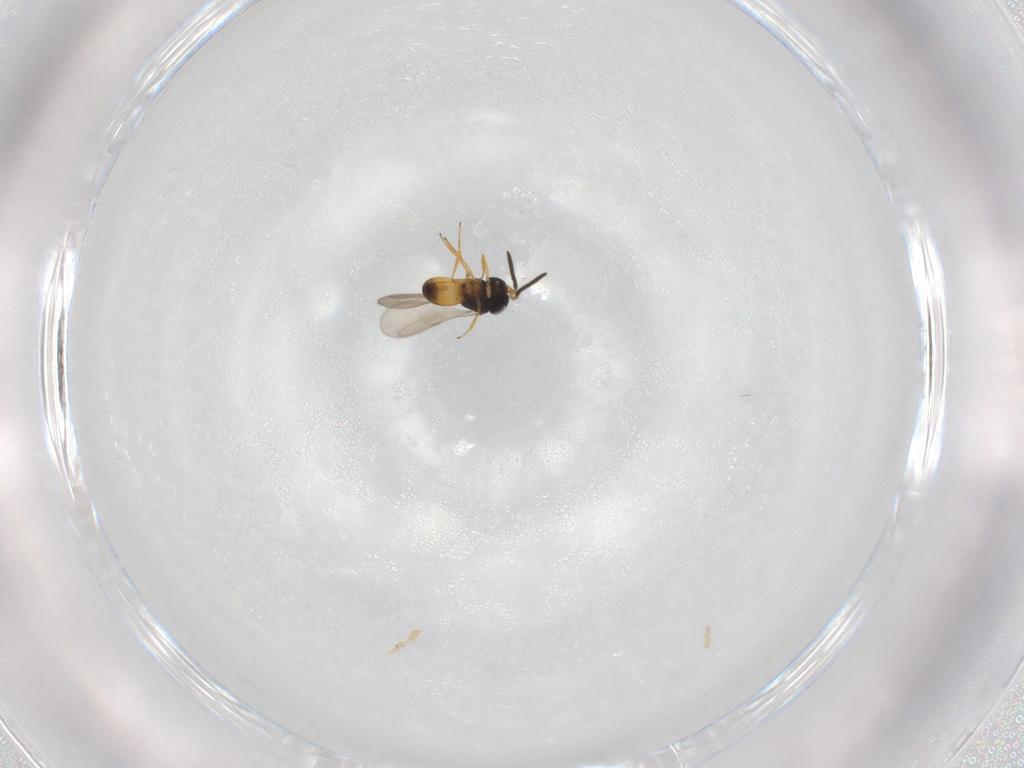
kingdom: Animalia
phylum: Arthropoda
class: Insecta
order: Hymenoptera
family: Scelionidae
